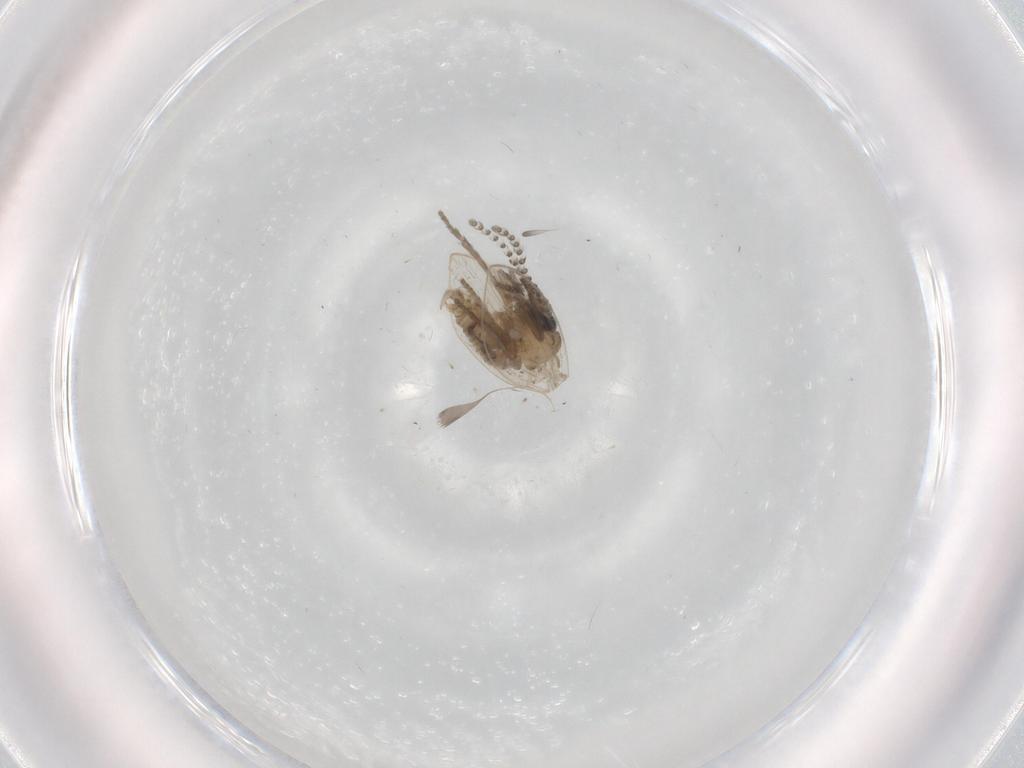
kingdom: Animalia
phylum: Arthropoda
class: Insecta
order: Diptera
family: Psychodidae
